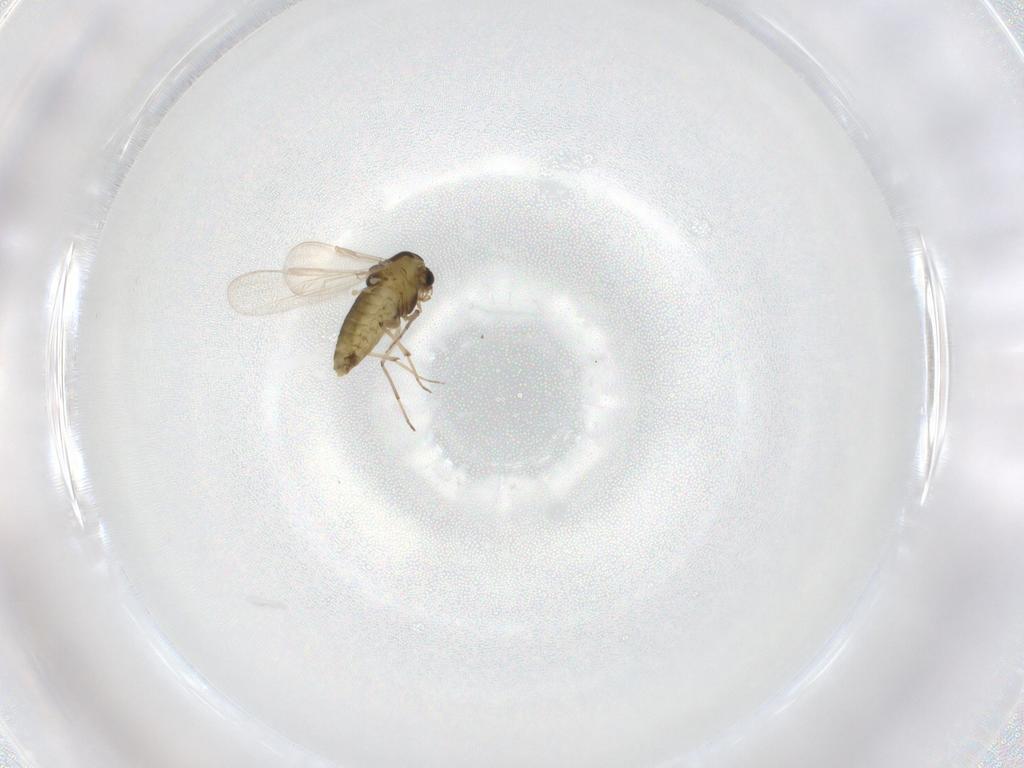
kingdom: Animalia
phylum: Arthropoda
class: Insecta
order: Diptera
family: Chironomidae
